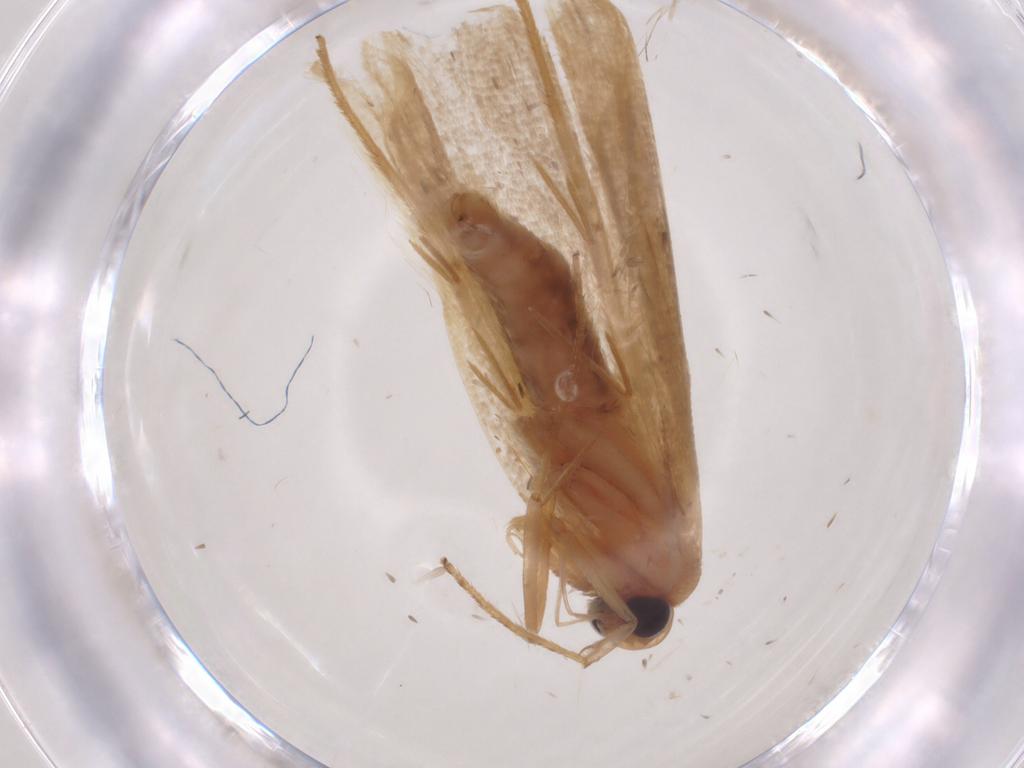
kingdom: Animalia
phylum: Arthropoda
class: Insecta
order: Lepidoptera
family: Depressariidae
